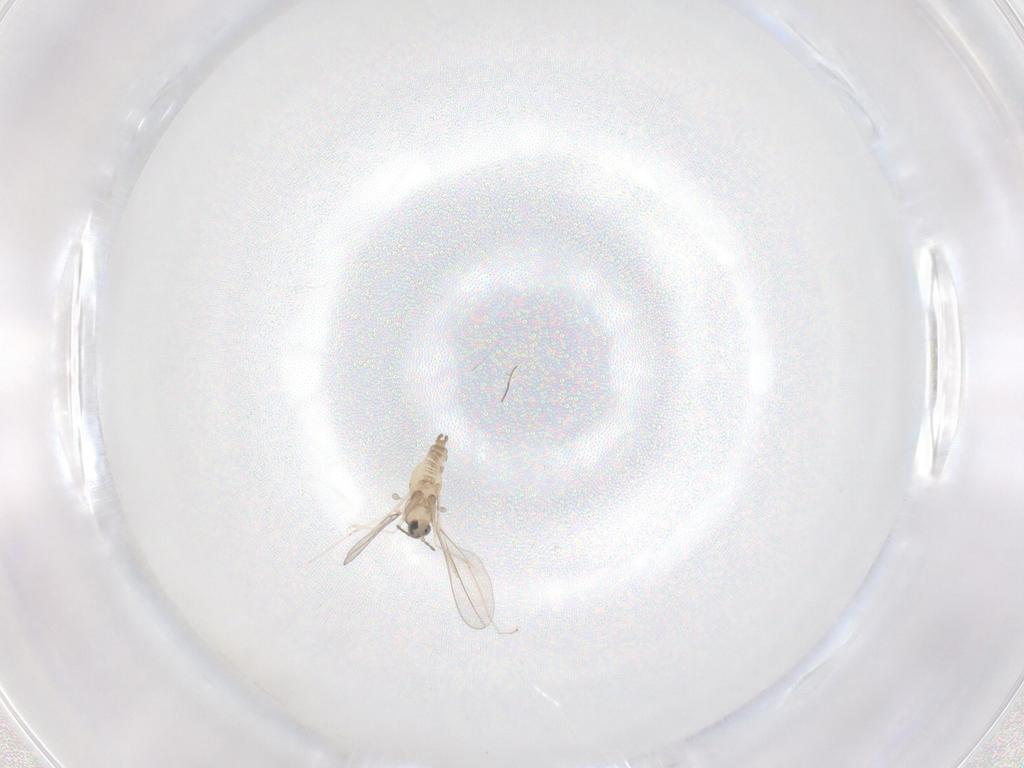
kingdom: Animalia
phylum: Arthropoda
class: Insecta
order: Diptera
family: Cecidomyiidae
